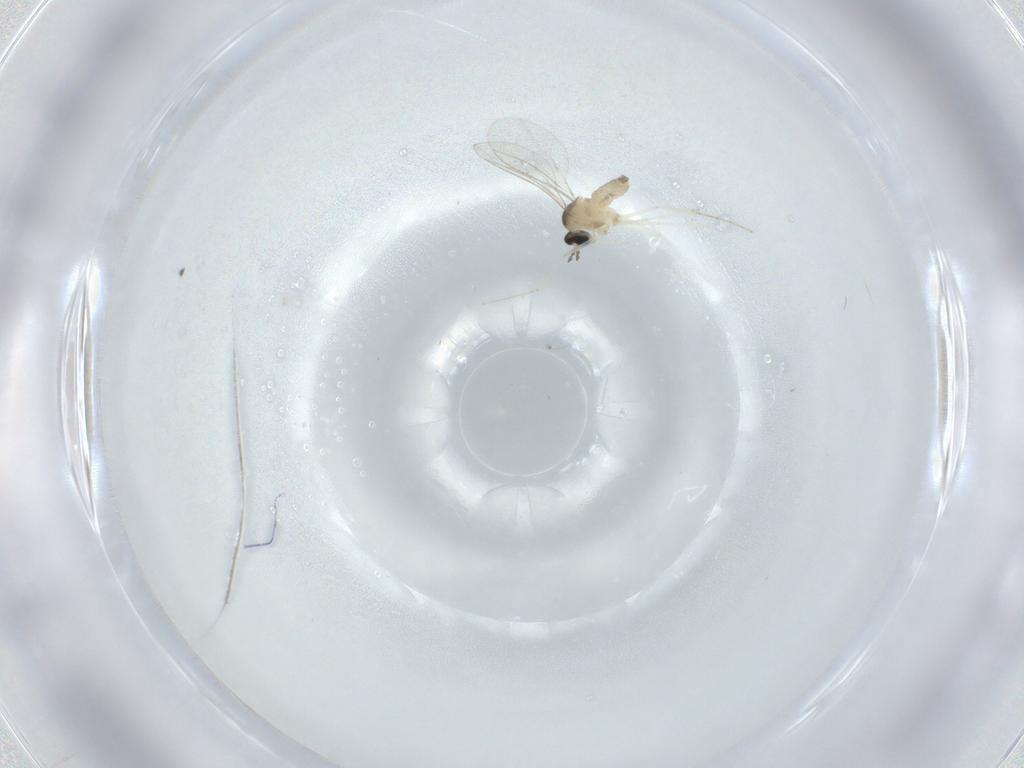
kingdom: Animalia
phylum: Arthropoda
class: Insecta
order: Diptera
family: Cecidomyiidae
